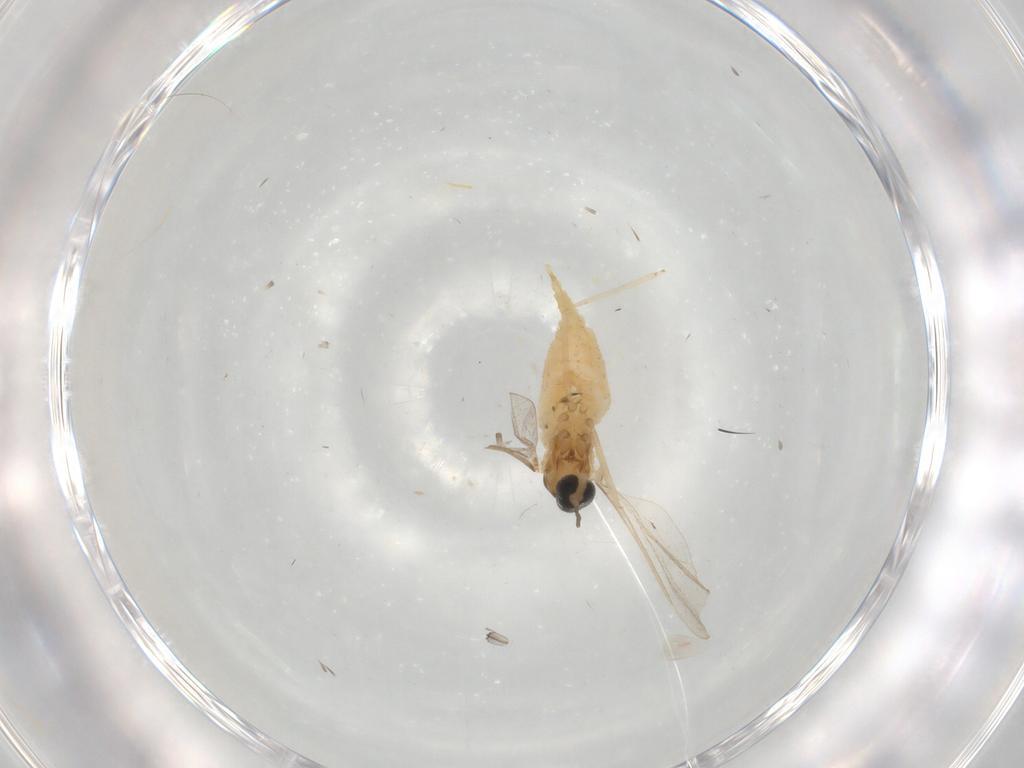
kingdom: Animalia
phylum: Arthropoda
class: Insecta
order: Diptera
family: Cecidomyiidae
